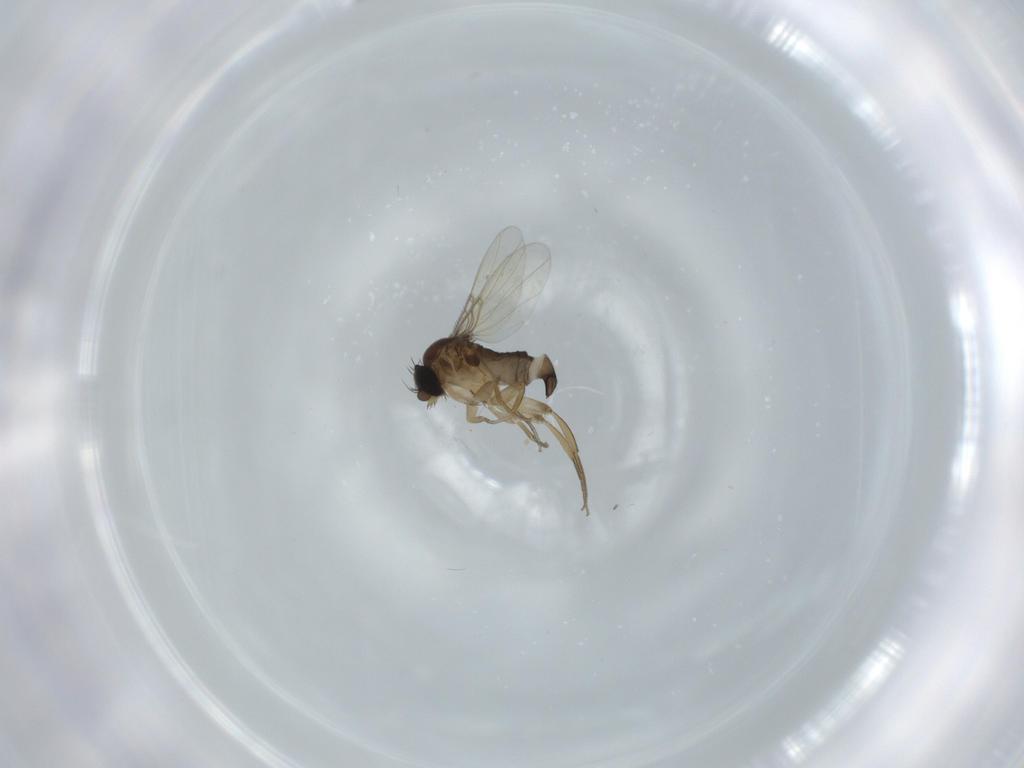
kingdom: Animalia
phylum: Arthropoda
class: Insecta
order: Diptera
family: Phoridae
